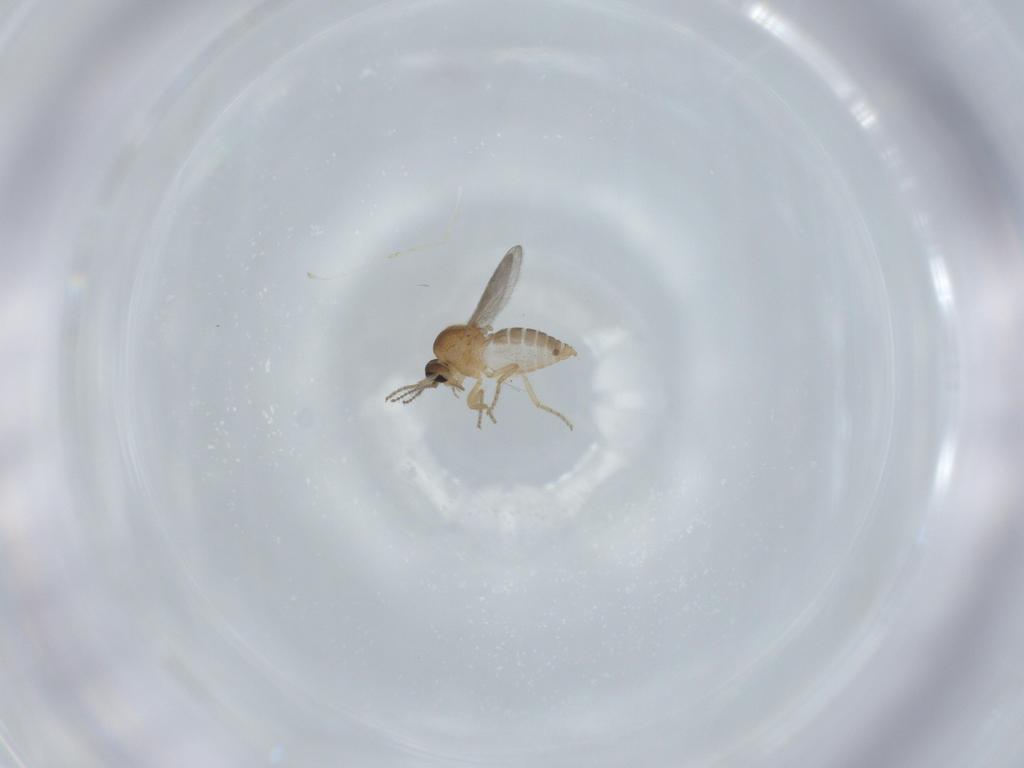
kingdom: Animalia
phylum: Arthropoda
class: Insecta
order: Diptera
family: Ceratopogonidae
